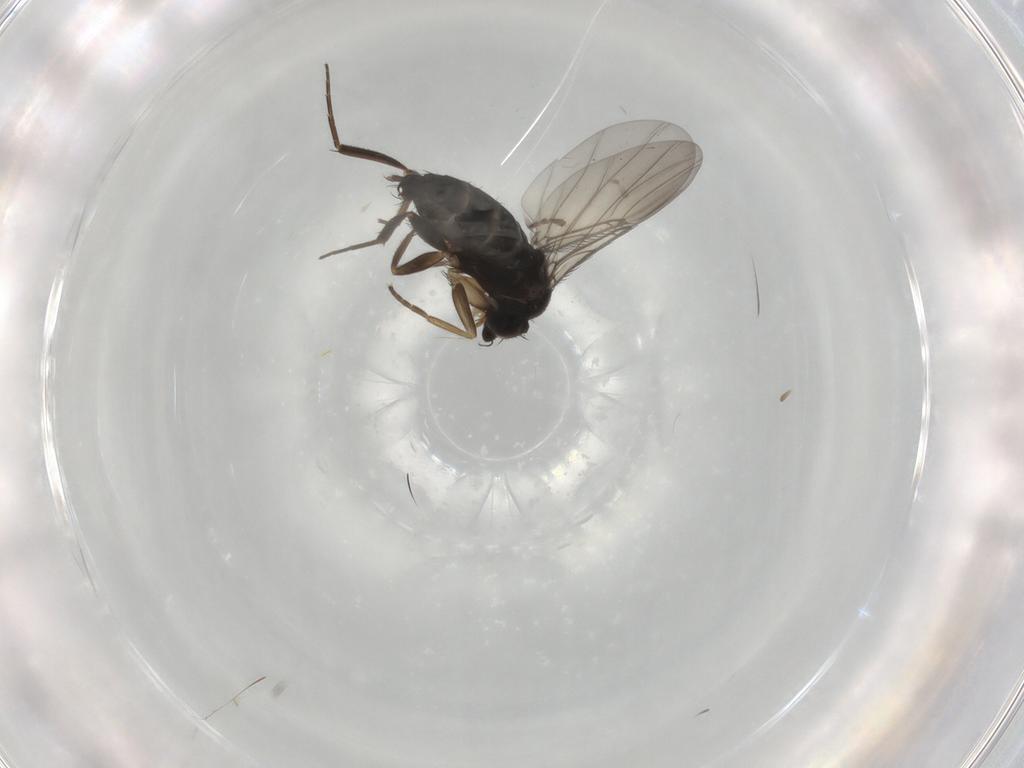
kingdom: Animalia
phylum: Arthropoda
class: Insecta
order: Diptera
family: Phoridae
